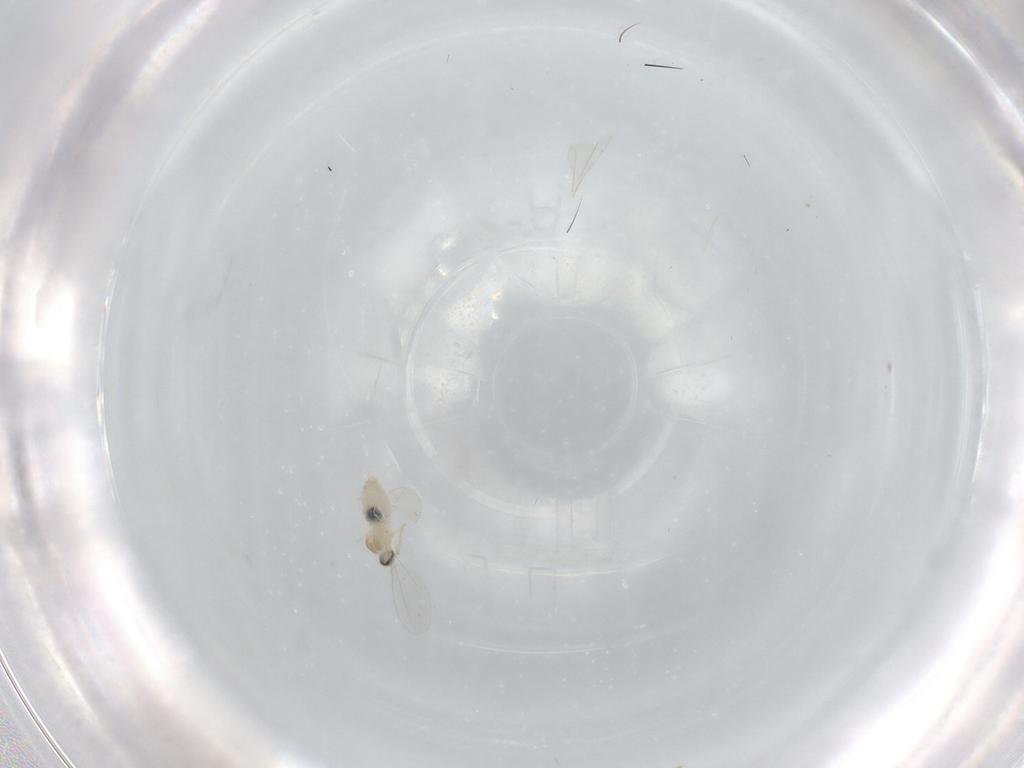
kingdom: Animalia
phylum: Arthropoda
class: Insecta
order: Diptera
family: Cecidomyiidae
